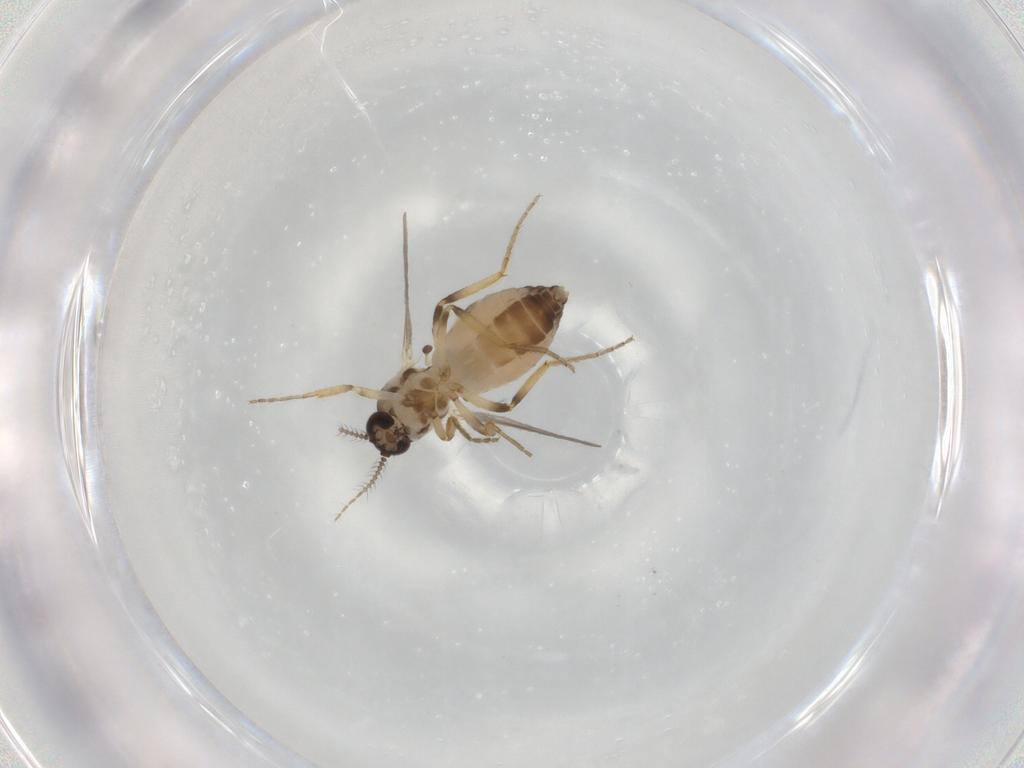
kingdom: Animalia
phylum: Arthropoda
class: Insecta
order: Diptera
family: Ceratopogonidae
